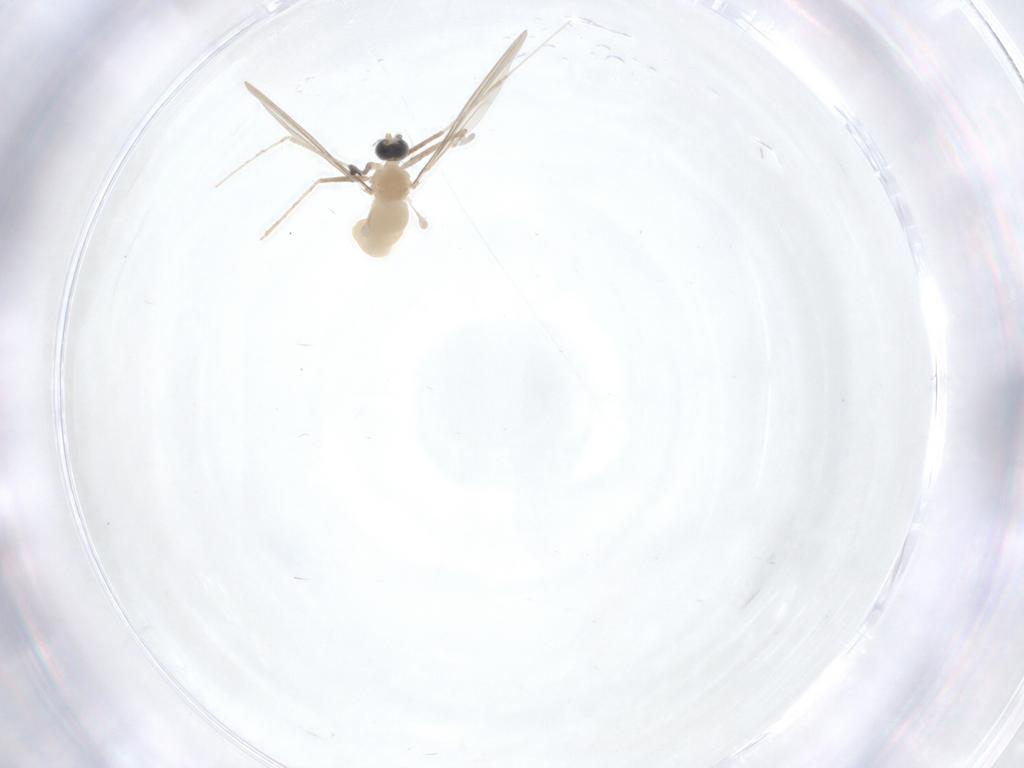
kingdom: Animalia
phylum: Arthropoda
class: Insecta
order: Diptera
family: Cecidomyiidae
